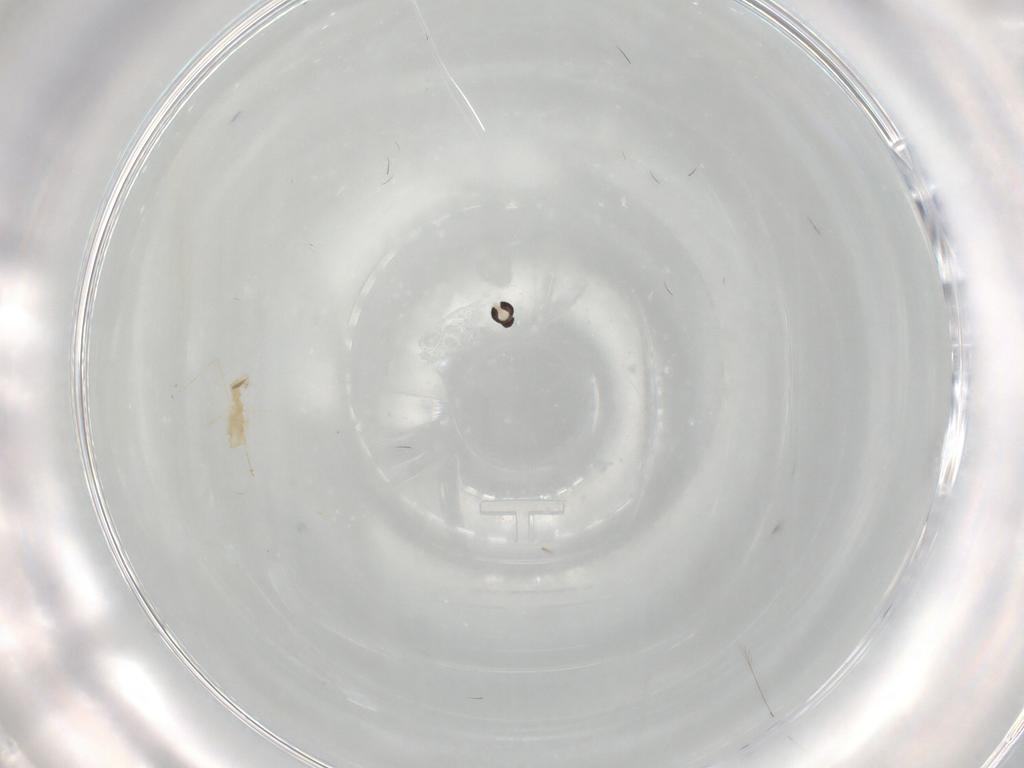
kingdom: Animalia
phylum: Arthropoda
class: Insecta
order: Diptera
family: Cecidomyiidae
